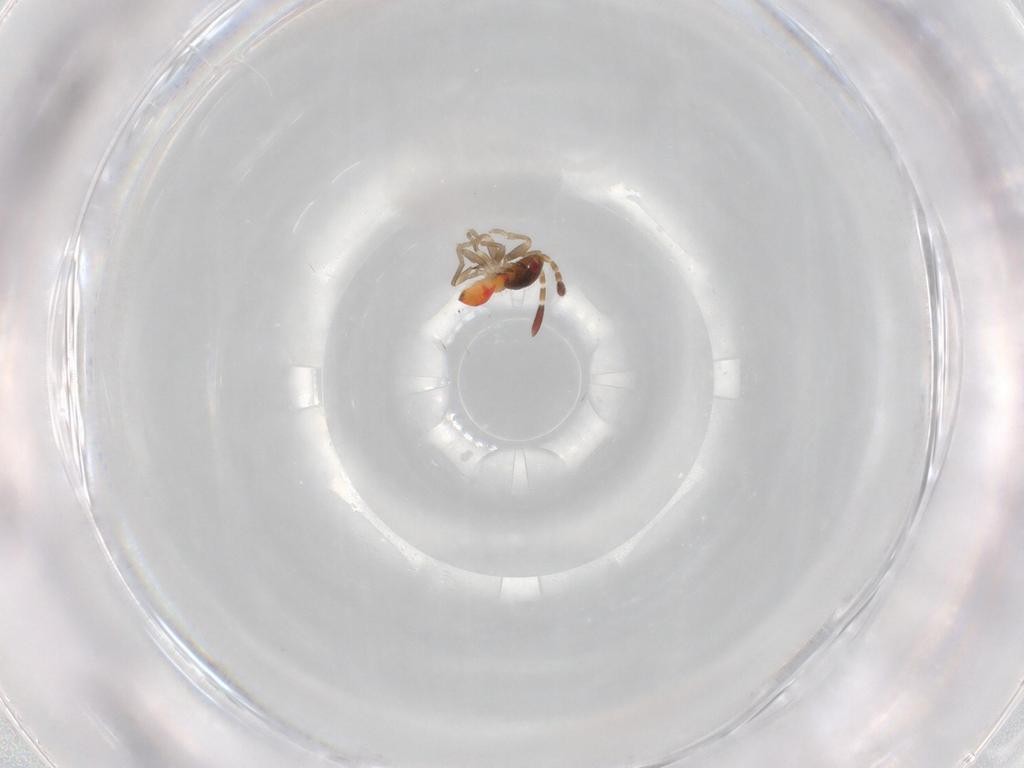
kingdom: Animalia
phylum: Arthropoda
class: Insecta
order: Hemiptera
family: Rhyparochromidae
